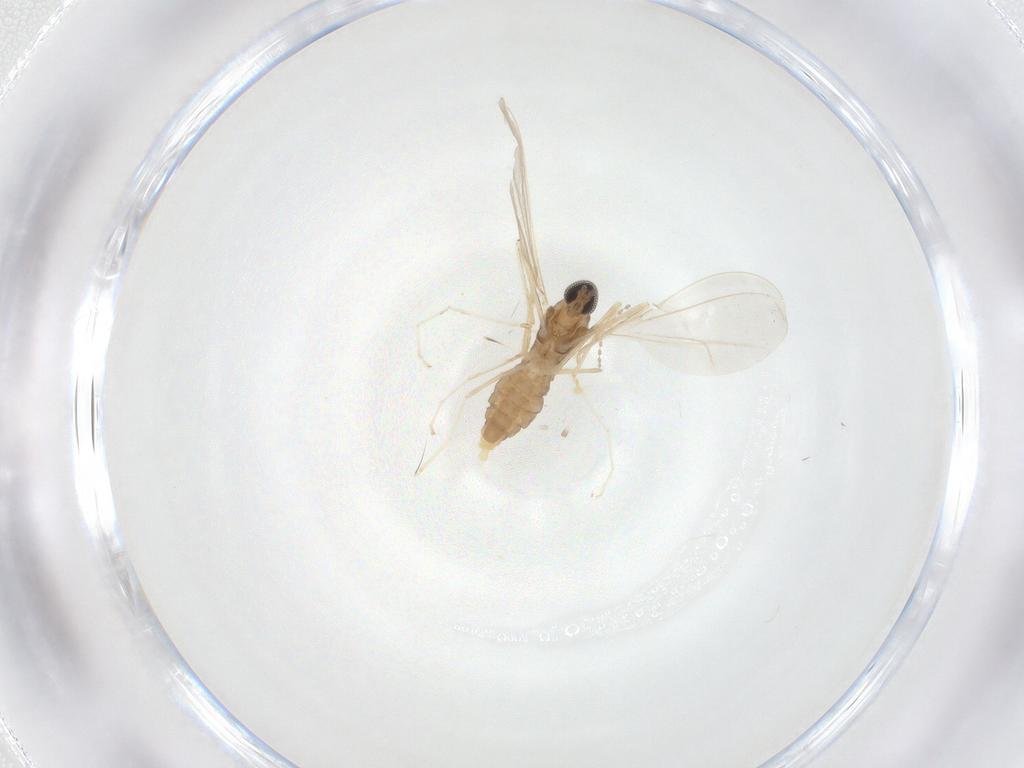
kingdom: Animalia
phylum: Arthropoda
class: Insecta
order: Diptera
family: Cecidomyiidae
